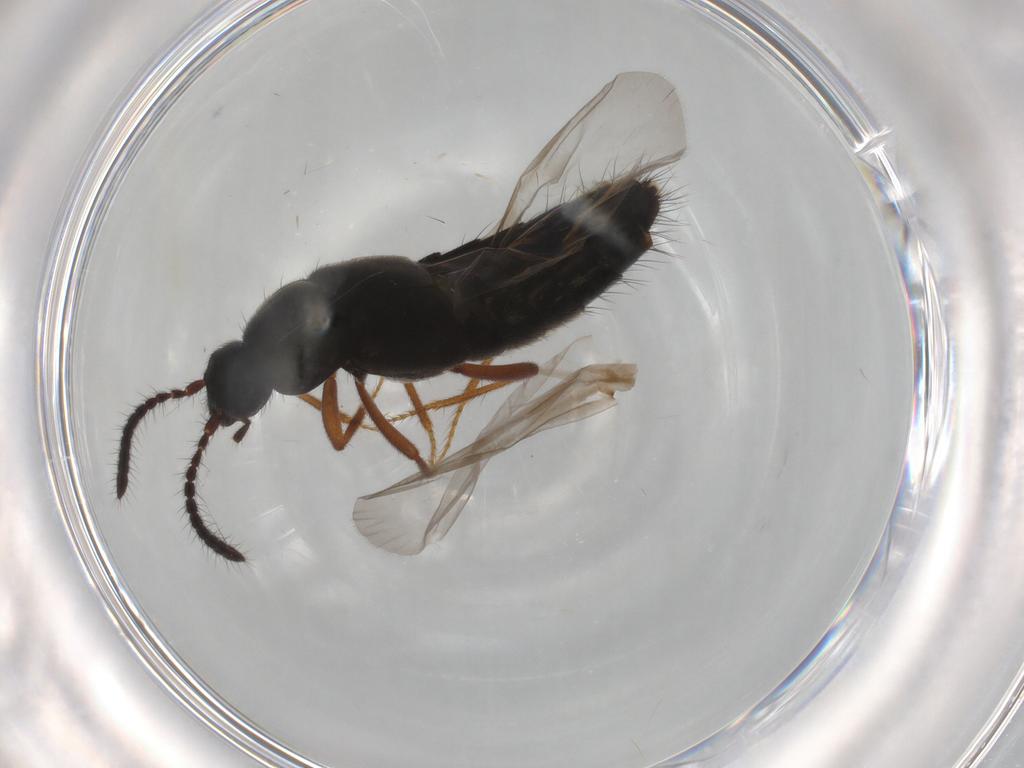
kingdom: Animalia
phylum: Arthropoda
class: Insecta
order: Coleoptera
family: Staphylinidae
